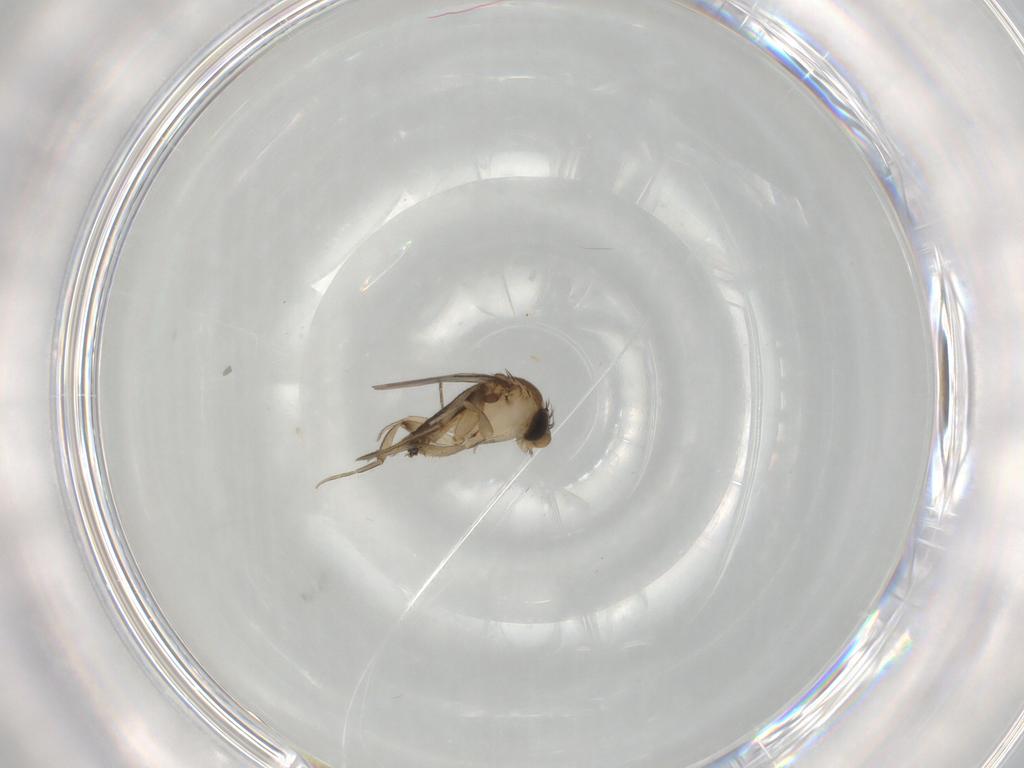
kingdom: Animalia
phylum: Arthropoda
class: Insecta
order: Diptera
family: Phoridae
